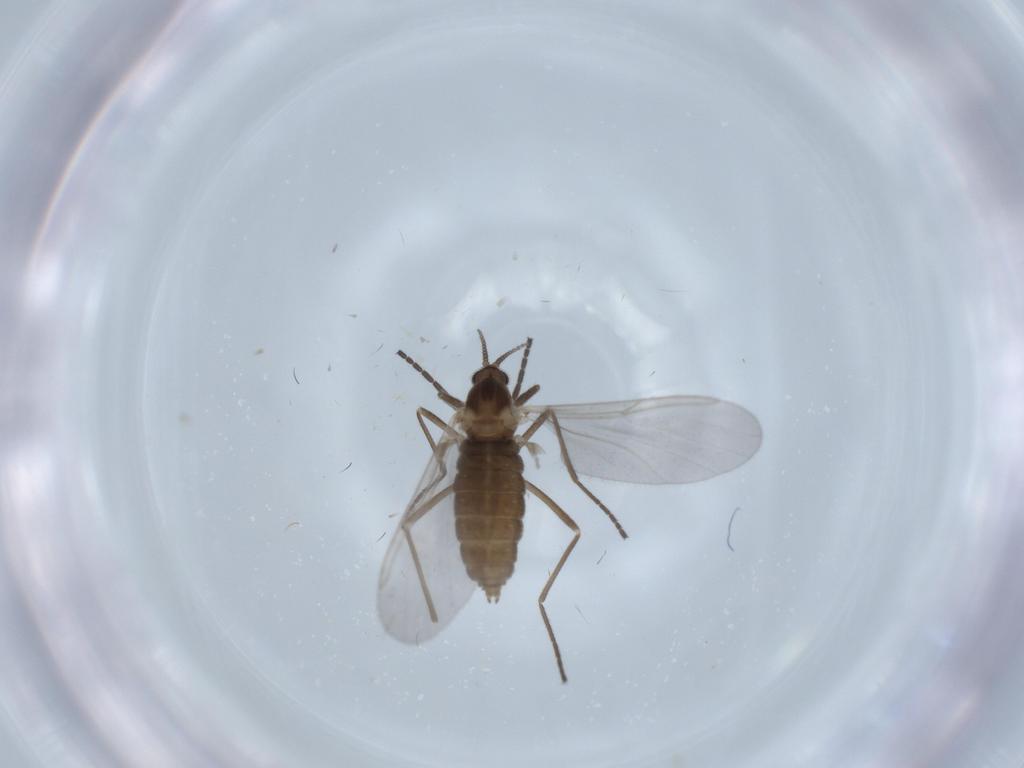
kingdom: Animalia
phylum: Arthropoda
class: Insecta
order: Diptera
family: Cecidomyiidae
